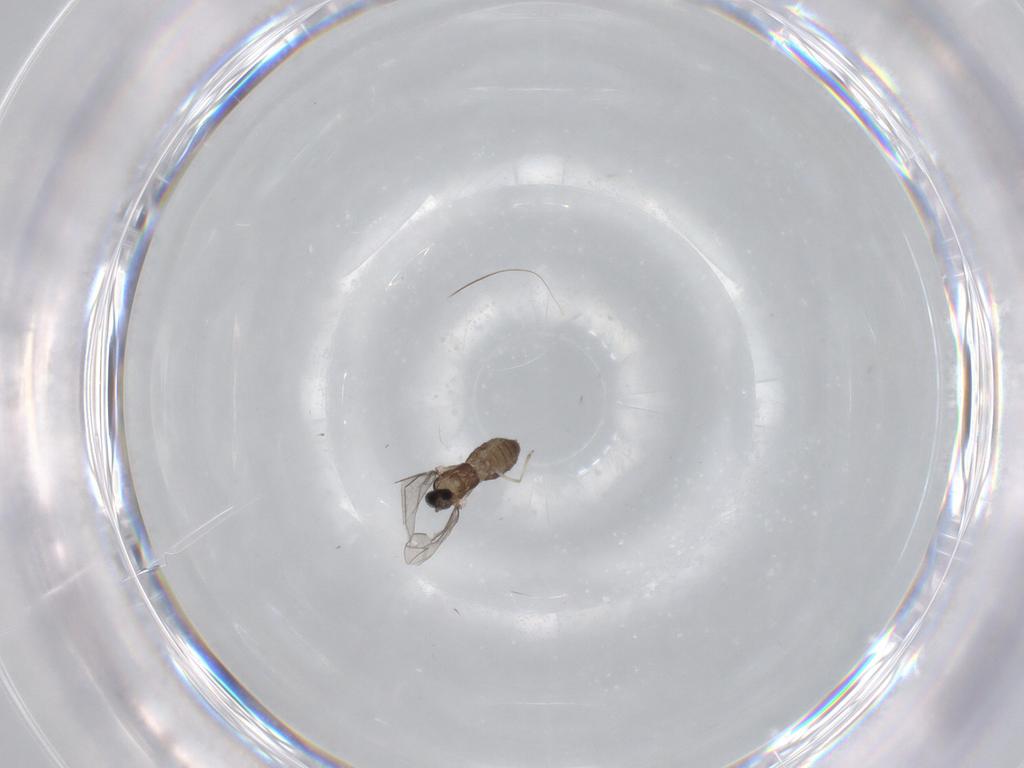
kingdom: Animalia
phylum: Arthropoda
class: Insecta
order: Diptera
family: Cecidomyiidae
